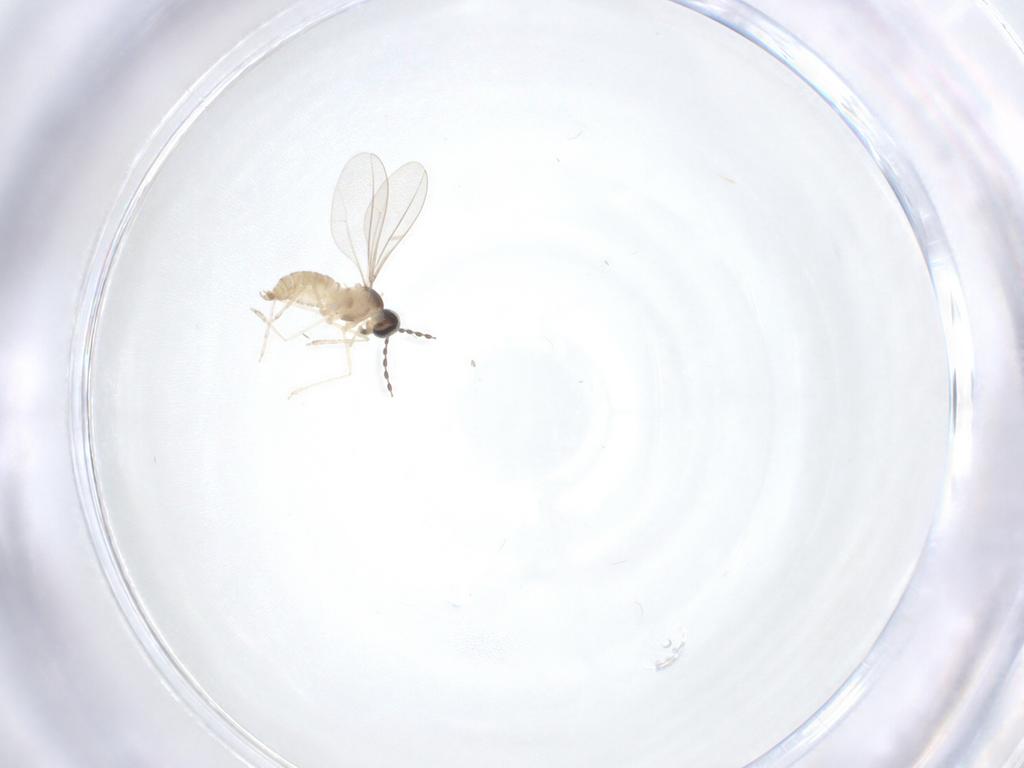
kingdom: Animalia
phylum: Arthropoda
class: Insecta
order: Diptera
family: Cecidomyiidae
